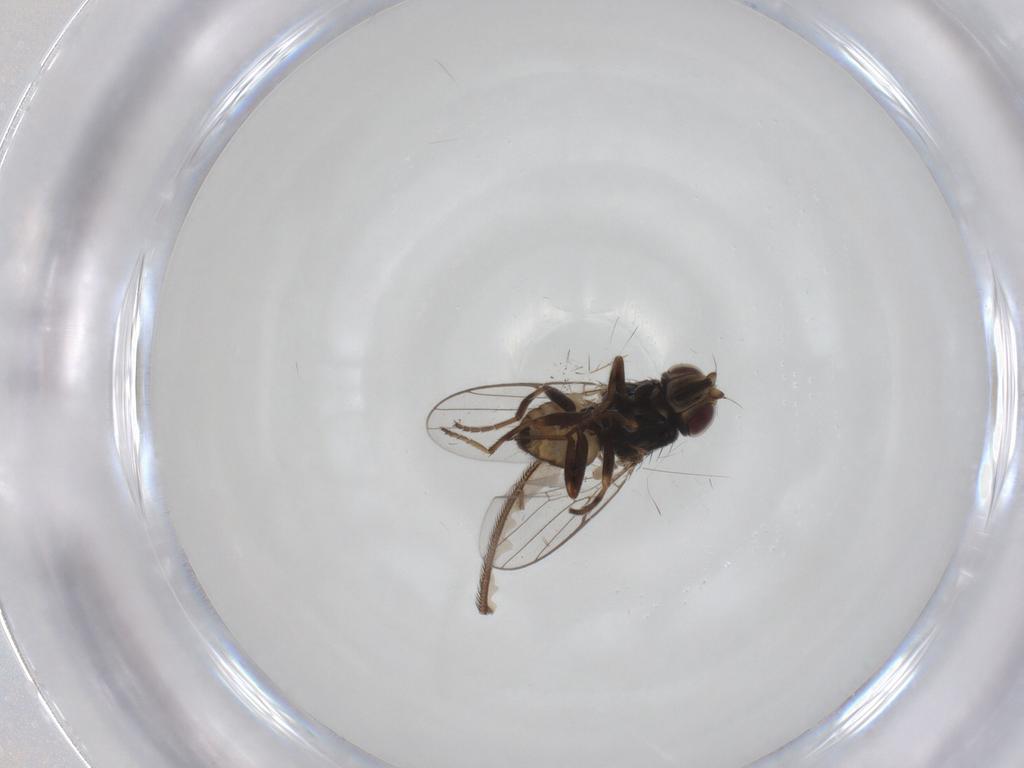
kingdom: Animalia
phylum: Arthropoda
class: Insecta
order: Diptera
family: Chloropidae
